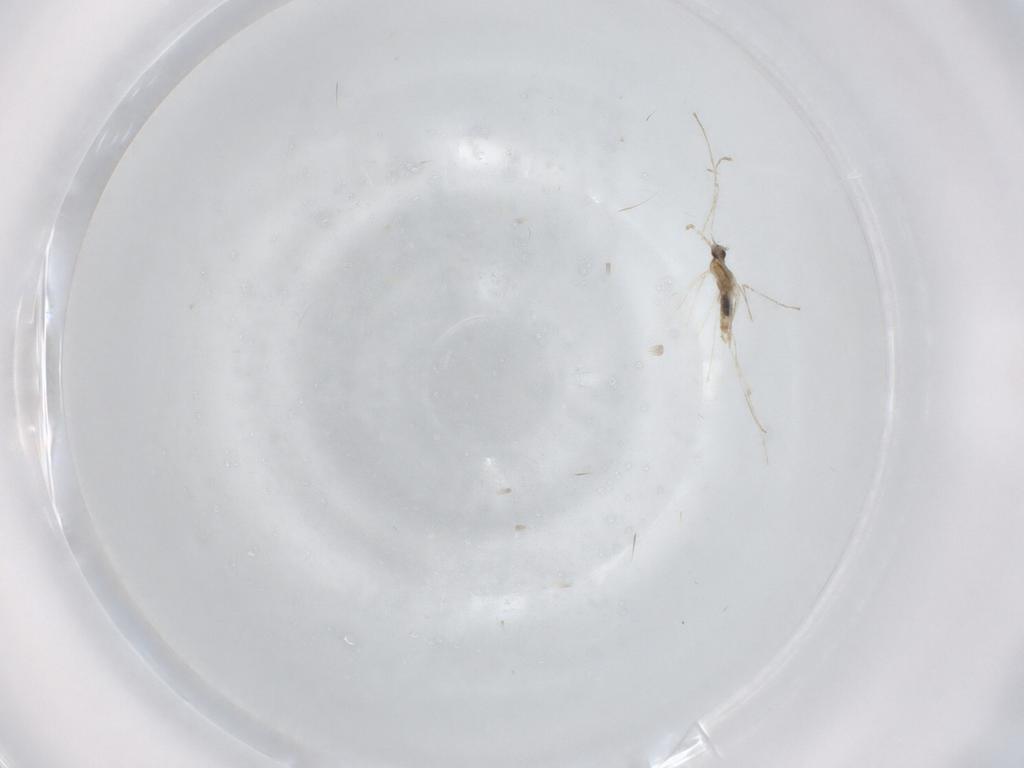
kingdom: Animalia
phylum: Arthropoda
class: Insecta
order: Diptera
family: Cecidomyiidae
